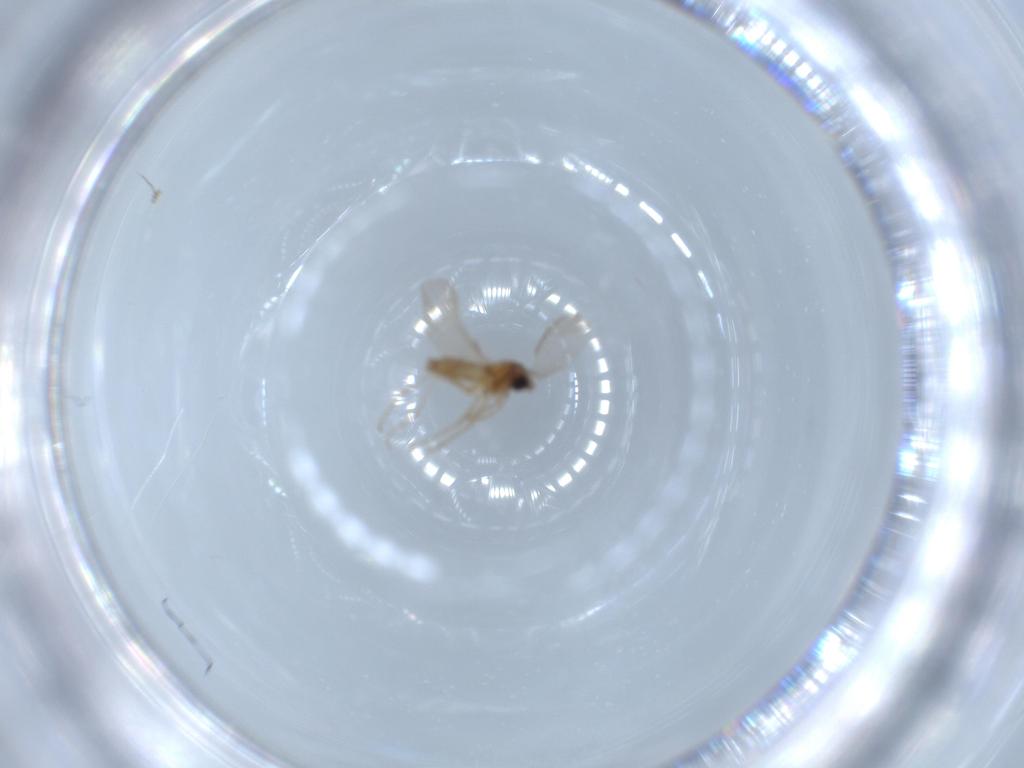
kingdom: Animalia
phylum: Arthropoda
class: Insecta
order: Diptera
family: Sciaridae
